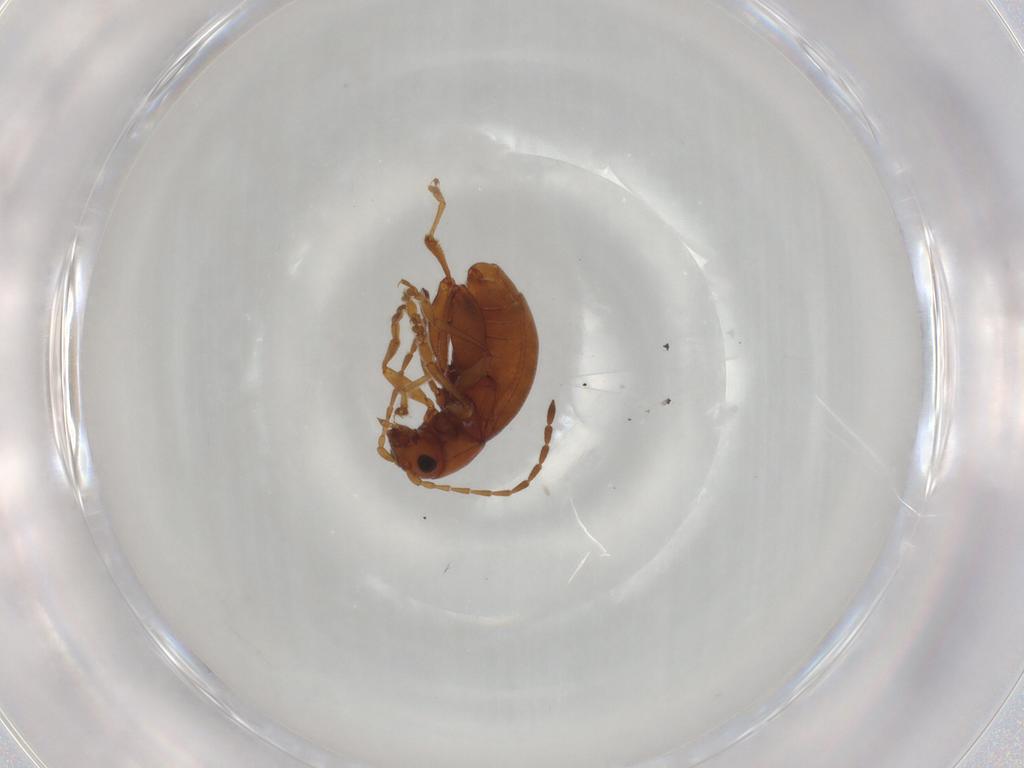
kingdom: Animalia
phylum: Arthropoda
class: Insecta
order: Coleoptera
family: Chrysomelidae
